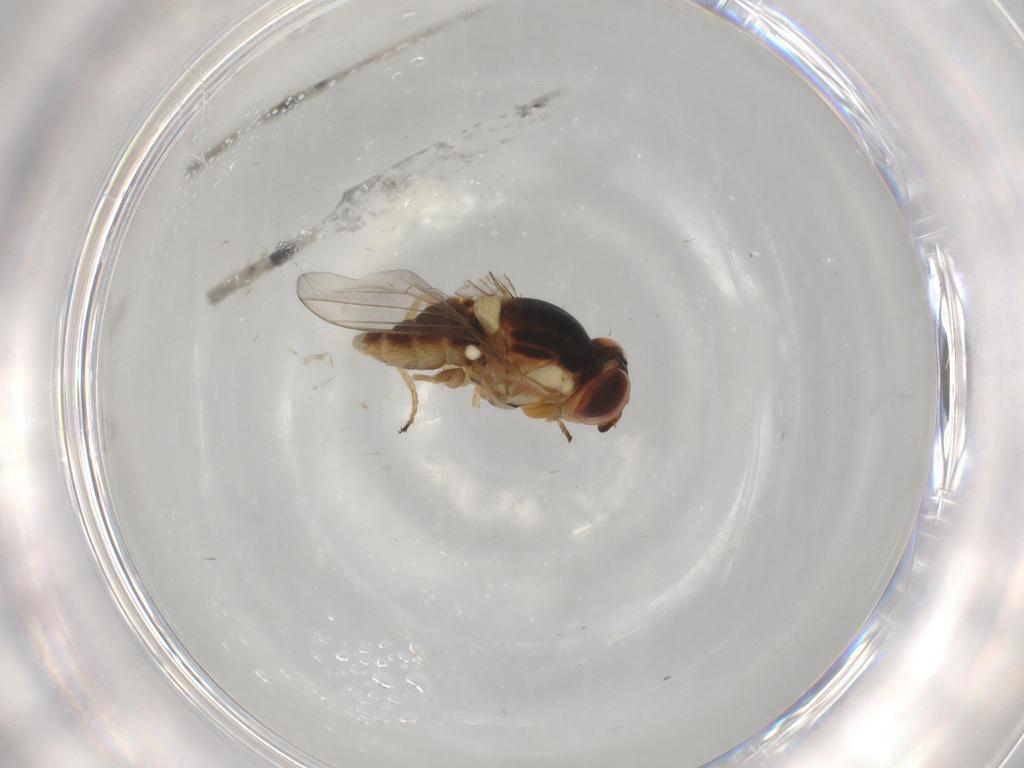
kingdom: Animalia
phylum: Arthropoda
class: Insecta
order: Diptera
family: Chloropidae
